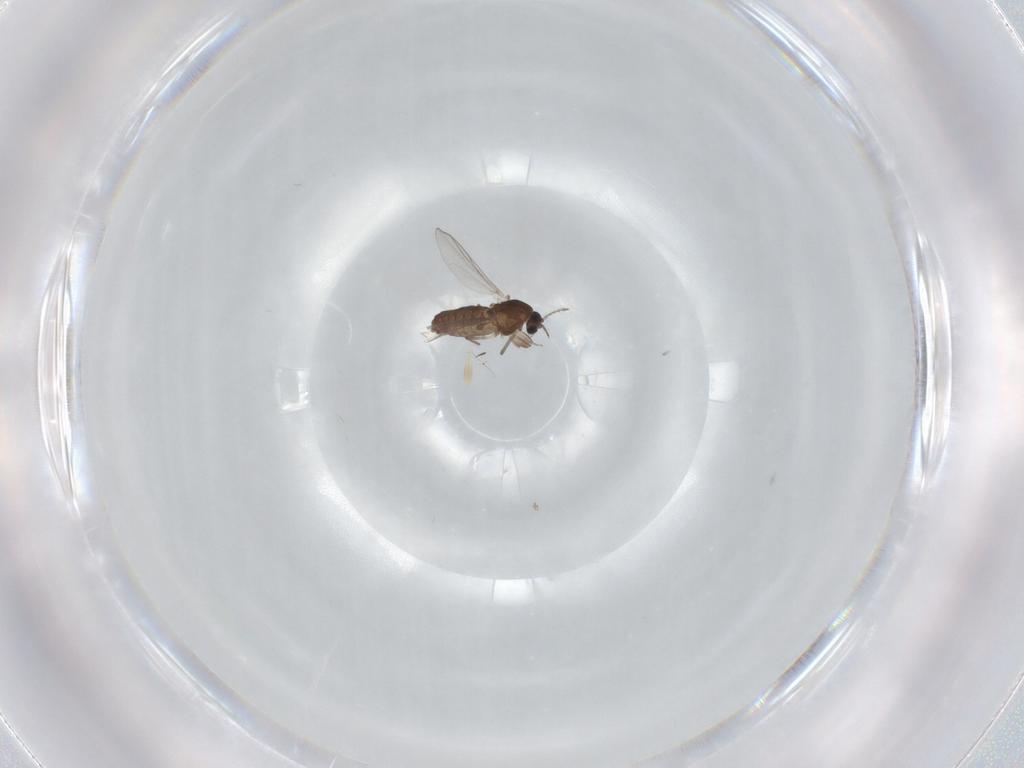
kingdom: Animalia
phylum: Arthropoda
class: Insecta
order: Diptera
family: Chironomidae
